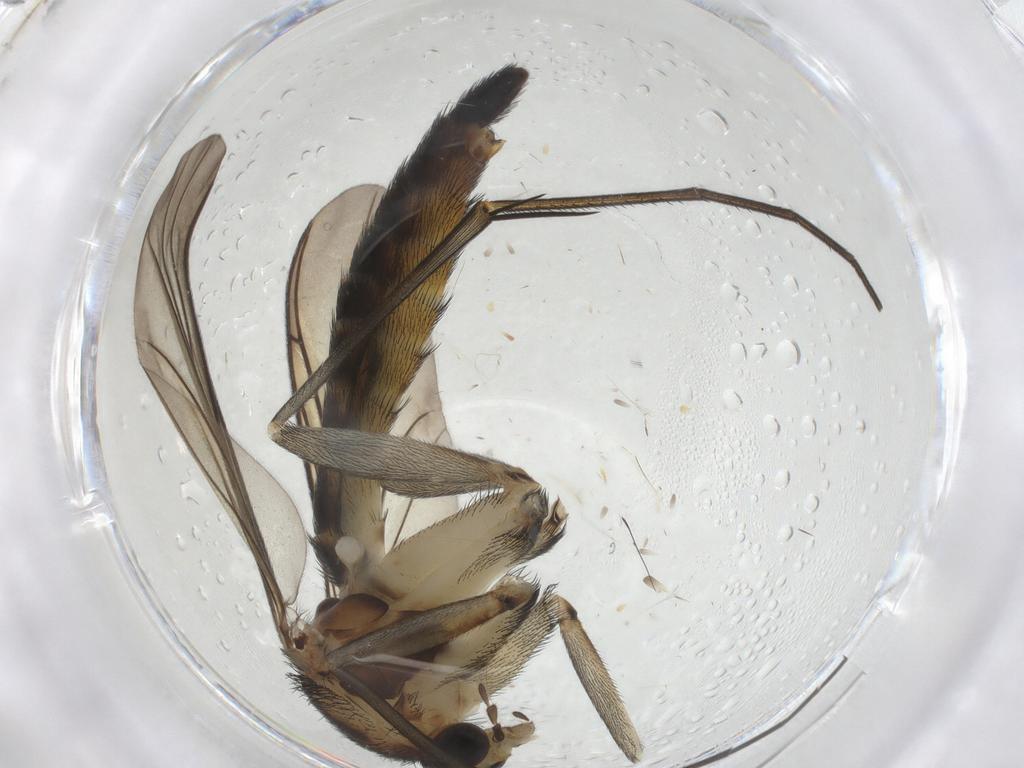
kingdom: Animalia
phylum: Arthropoda
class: Insecta
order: Diptera
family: Keroplatidae
